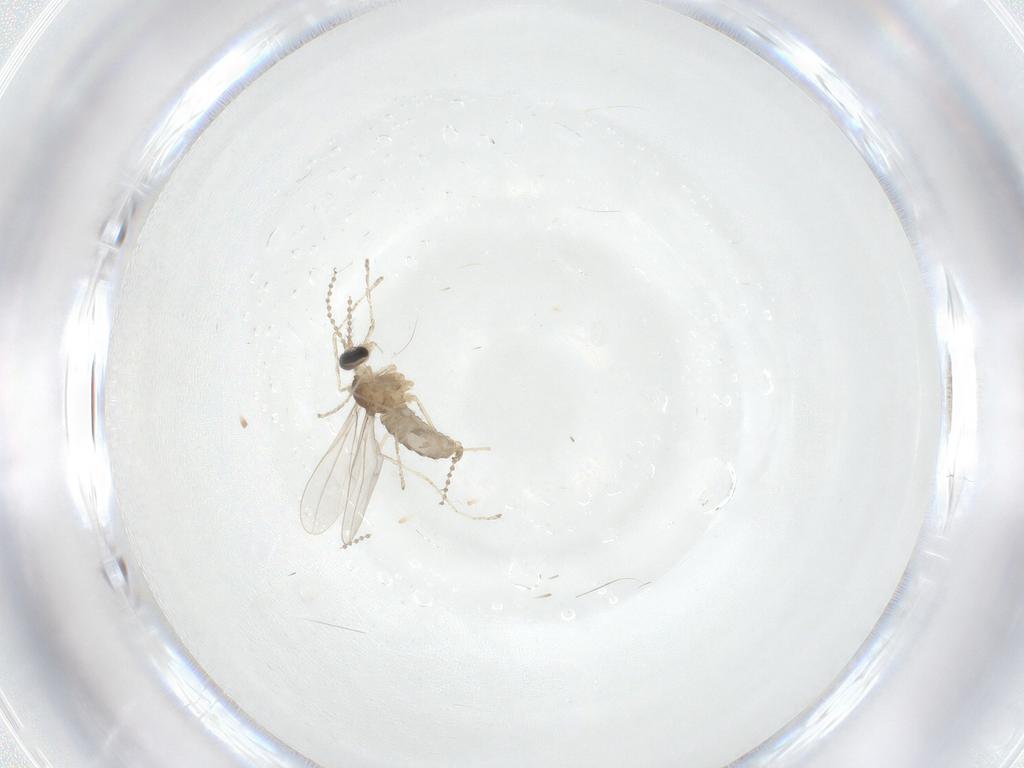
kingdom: Animalia
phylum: Arthropoda
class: Insecta
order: Diptera
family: Cecidomyiidae
